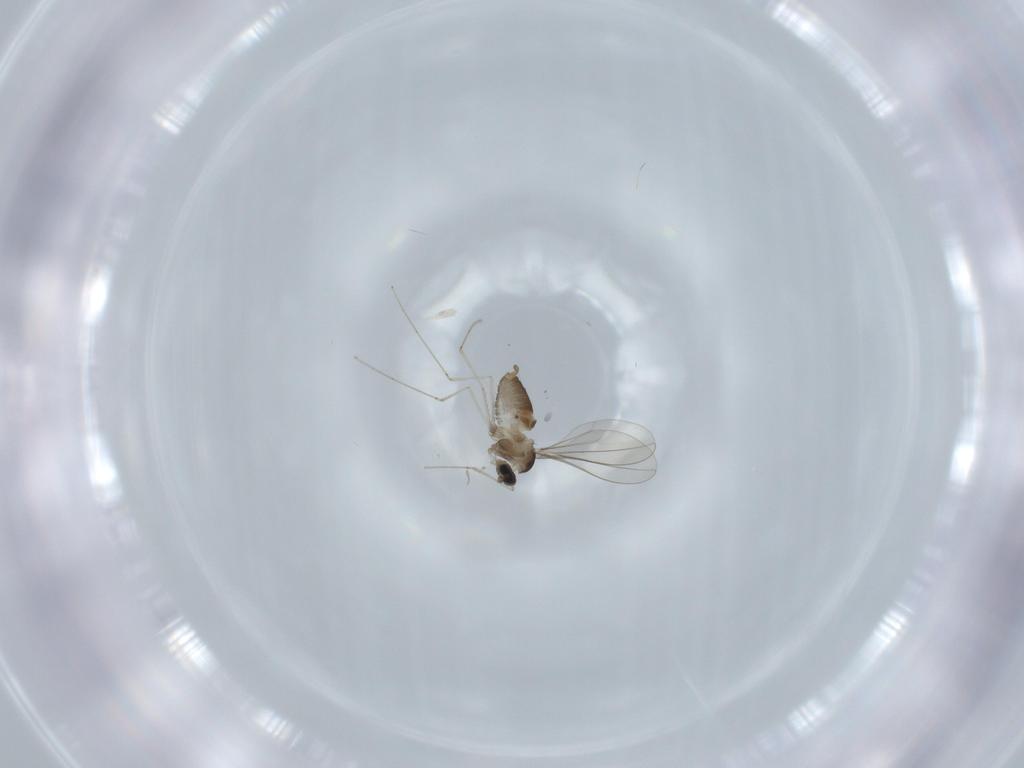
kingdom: Animalia
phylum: Arthropoda
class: Insecta
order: Diptera
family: Cecidomyiidae
